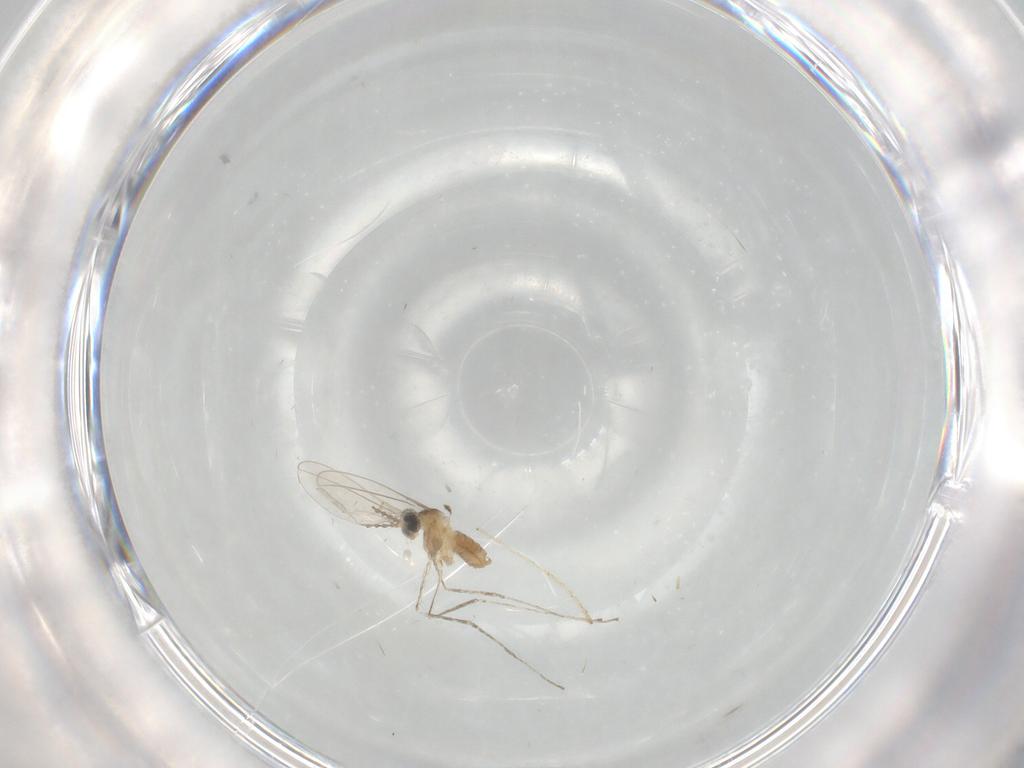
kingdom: Animalia
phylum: Arthropoda
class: Insecta
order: Diptera
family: Cecidomyiidae
